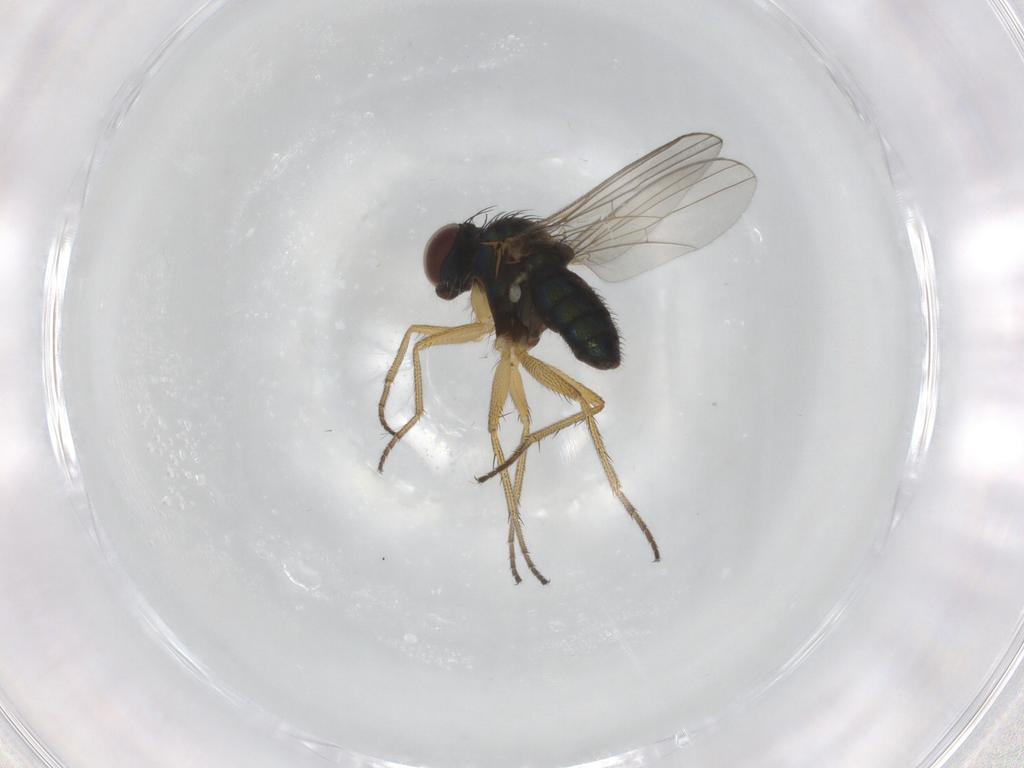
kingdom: Animalia
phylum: Arthropoda
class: Insecta
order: Diptera
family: Dolichopodidae
